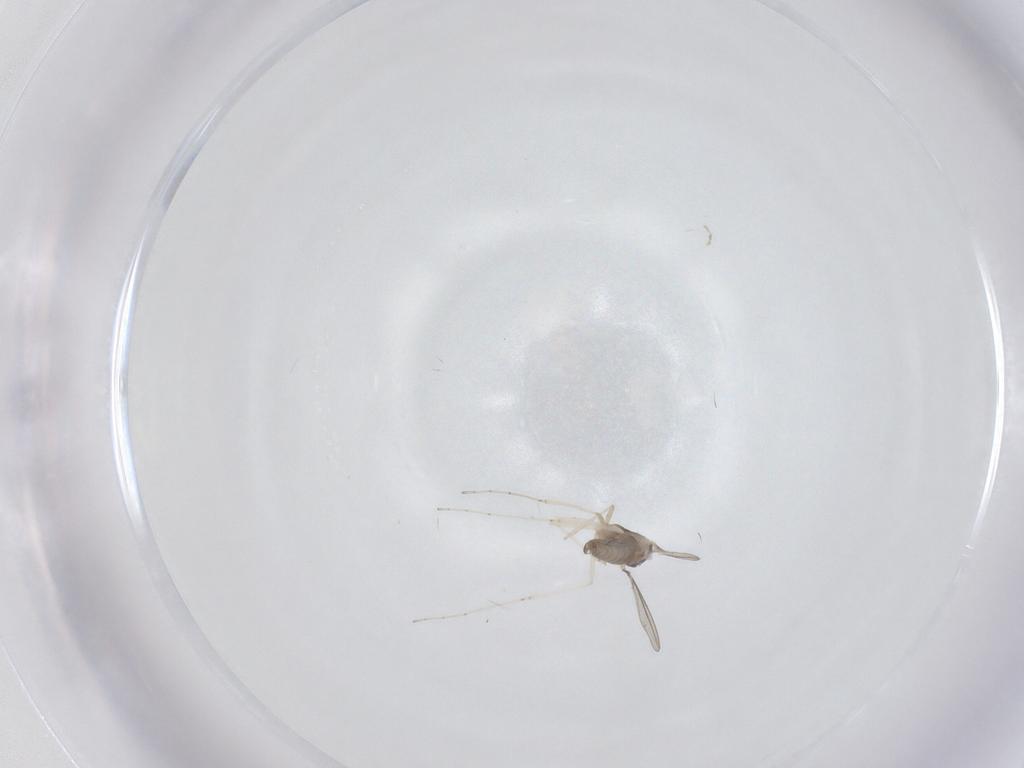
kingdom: Animalia
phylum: Arthropoda
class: Insecta
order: Diptera
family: Cecidomyiidae
